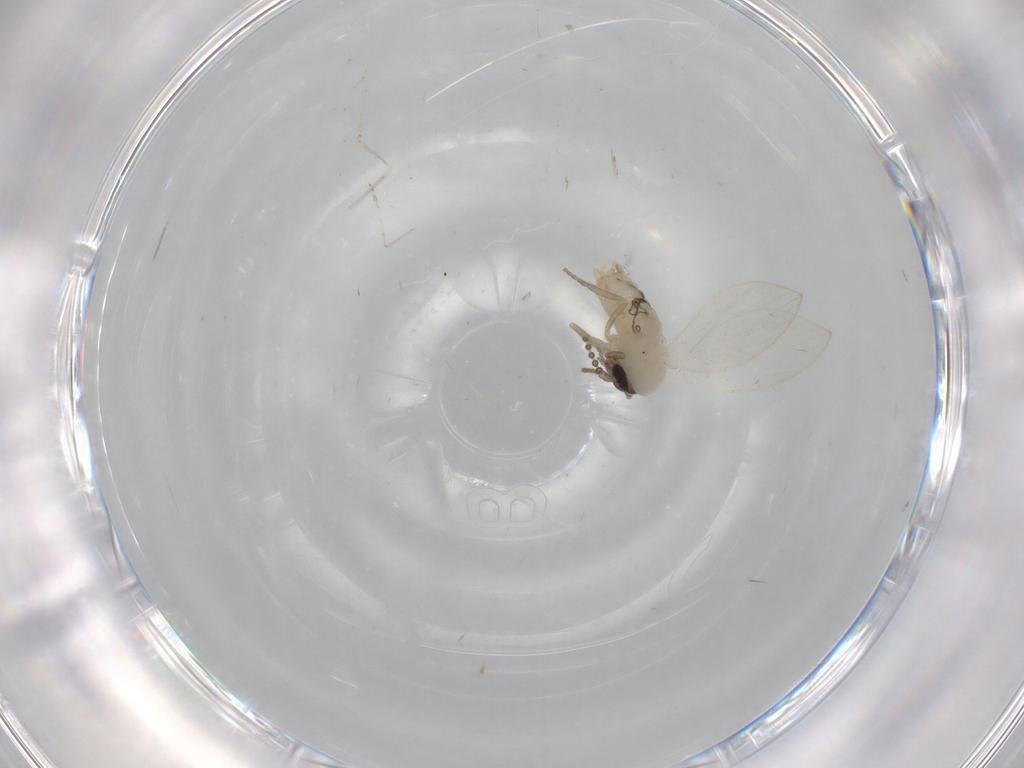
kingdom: Animalia
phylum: Arthropoda
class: Insecta
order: Diptera
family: Psychodidae
